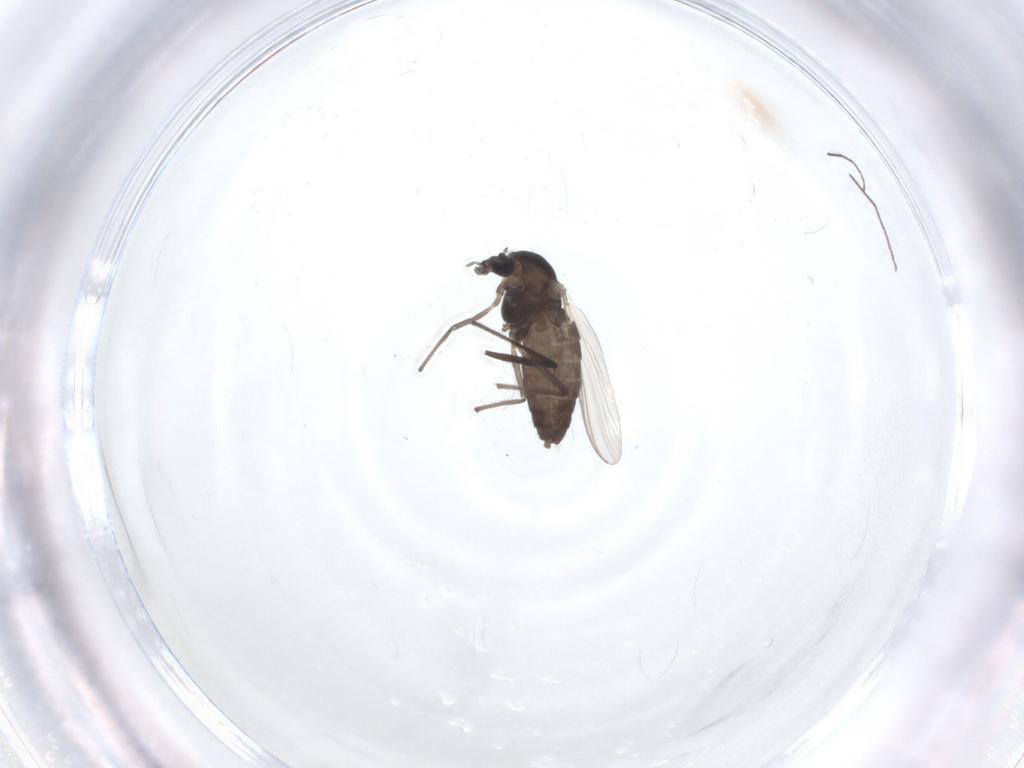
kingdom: Animalia
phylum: Arthropoda
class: Insecta
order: Diptera
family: Chironomidae
